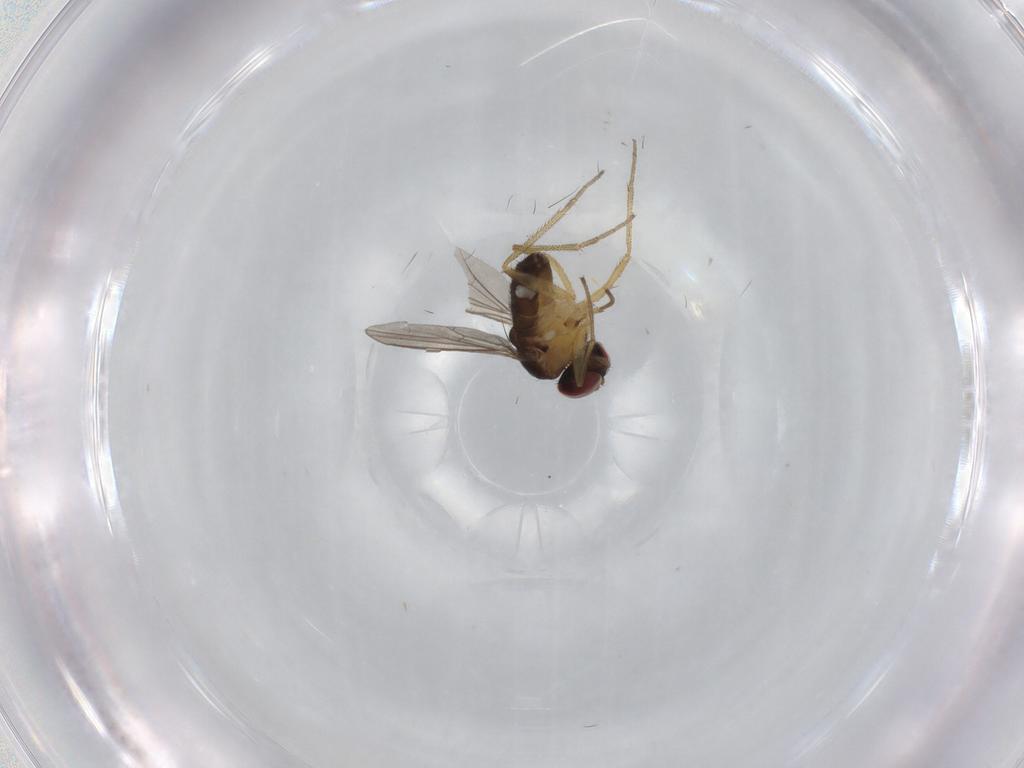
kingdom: Animalia
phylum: Arthropoda
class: Insecta
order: Diptera
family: Dolichopodidae
